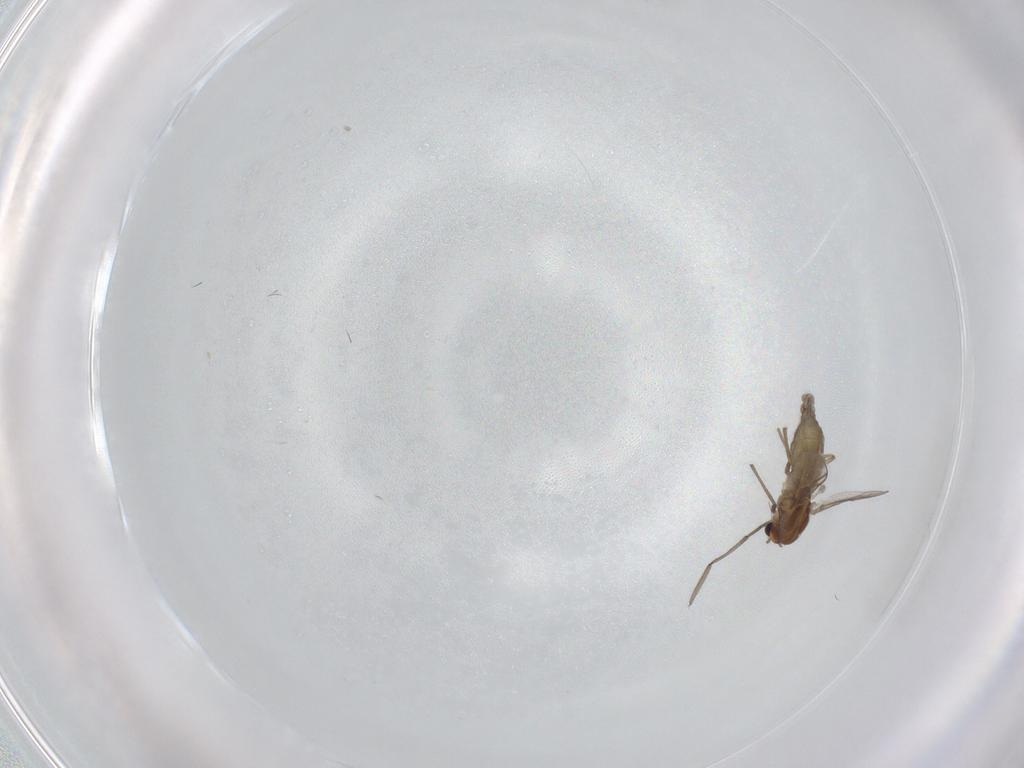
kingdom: Animalia
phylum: Arthropoda
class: Insecta
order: Diptera
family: Chironomidae
